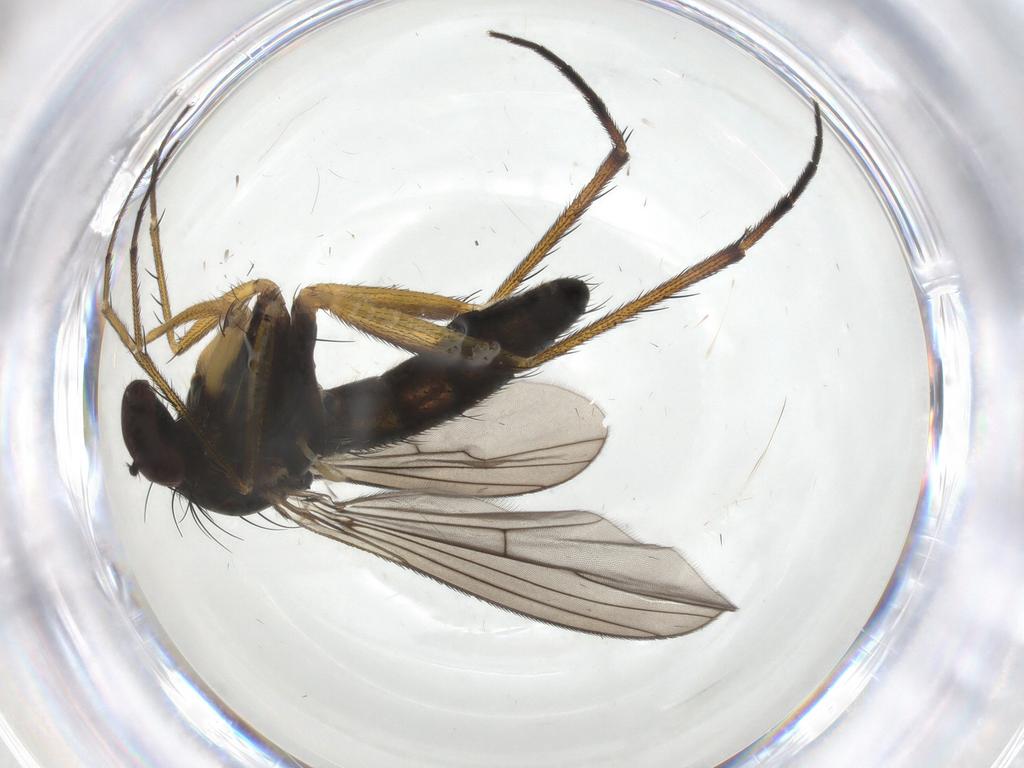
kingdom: Animalia
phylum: Arthropoda
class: Insecta
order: Diptera
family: Dolichopodidae
